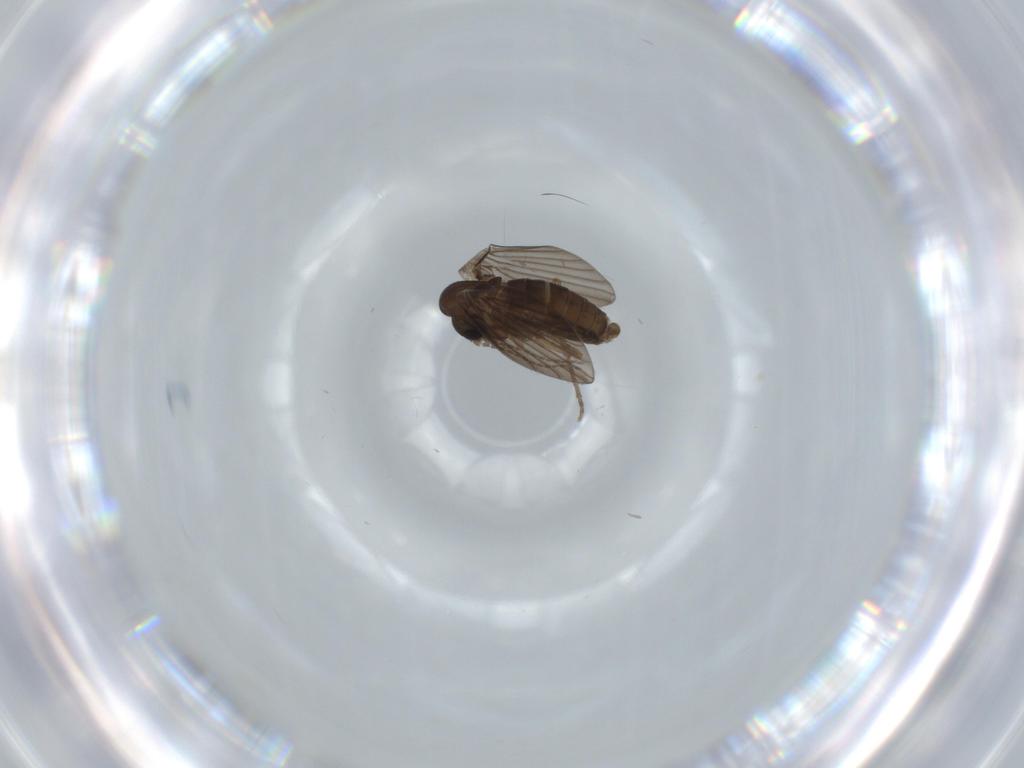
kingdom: Animalia
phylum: Arthropoda
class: Insecta
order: Diptera
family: Psychodidae
